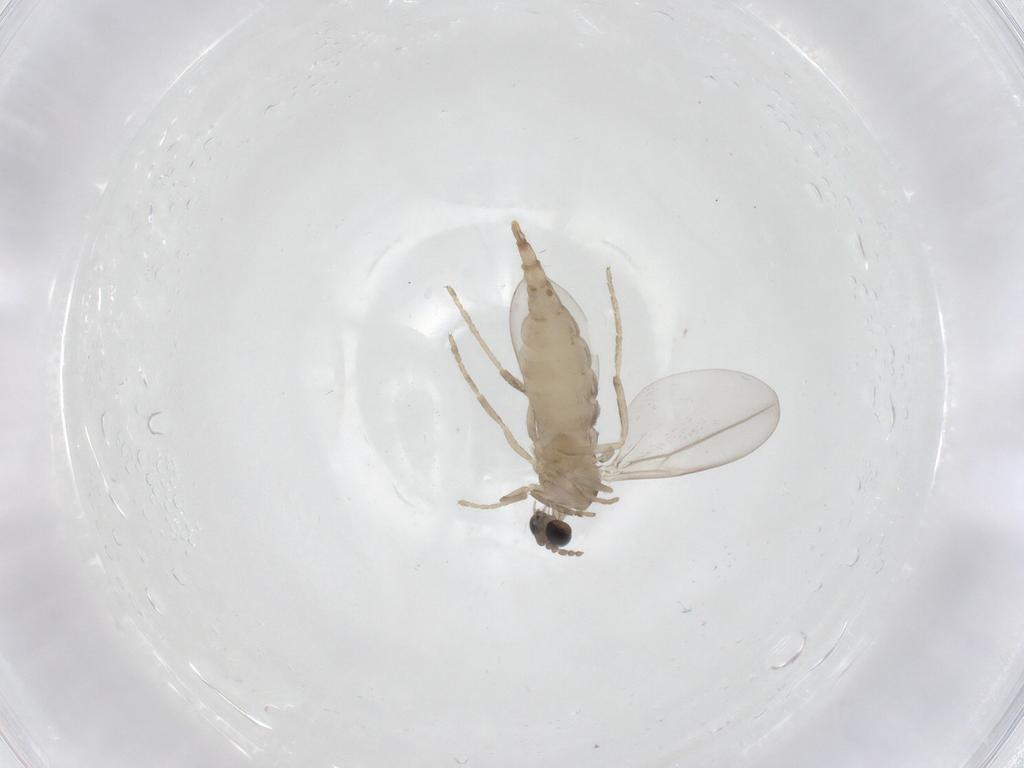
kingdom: Animalia
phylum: Arthropoda
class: Insecta
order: Diptera
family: Cecidomyiidae
